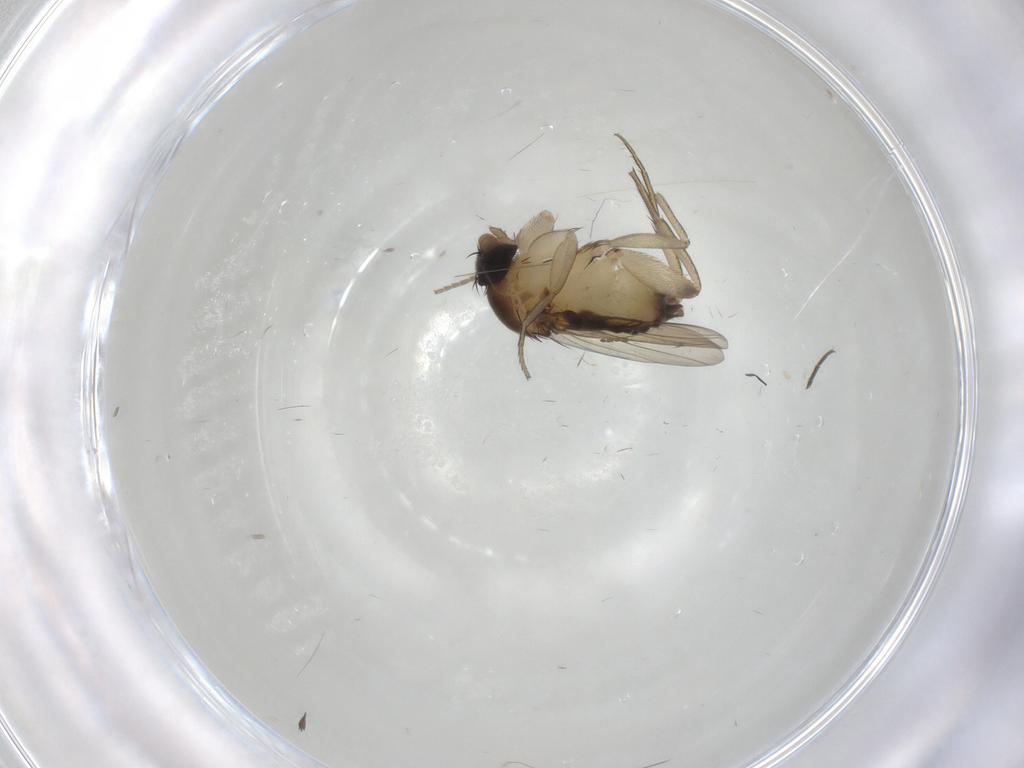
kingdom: Animalia
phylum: Arthropoda
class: Insecta
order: Diptera
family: Phoridae
